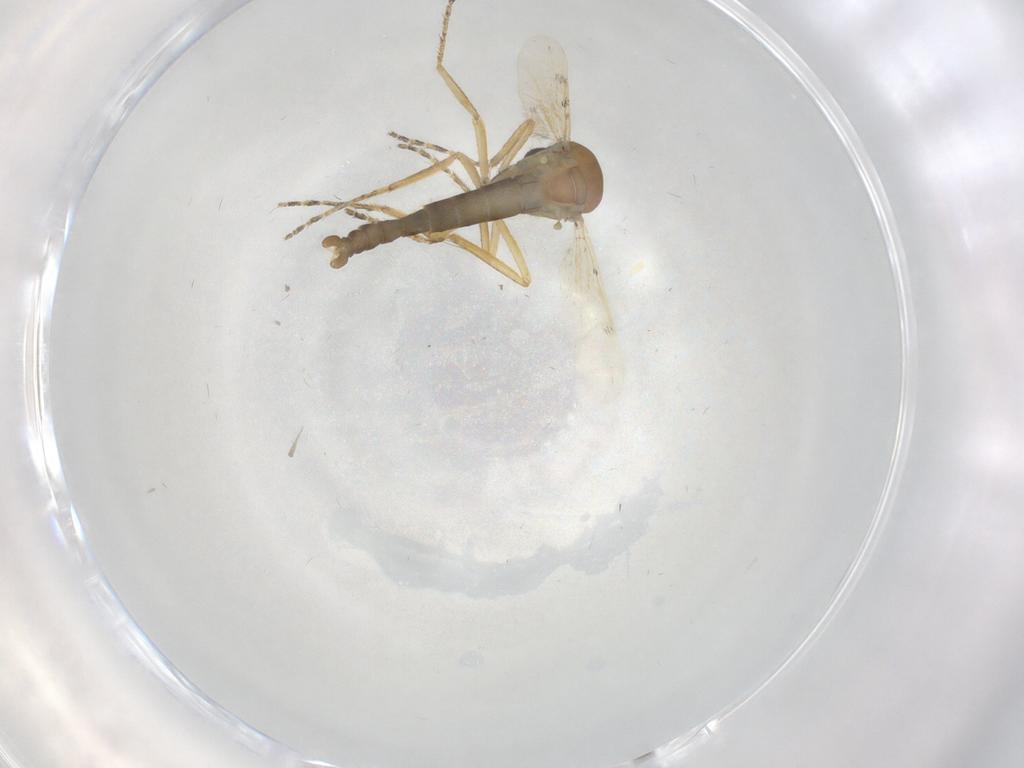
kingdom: Animalia
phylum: Arthropoda
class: Insecta
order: Diptera
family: Ceratopogonidae
